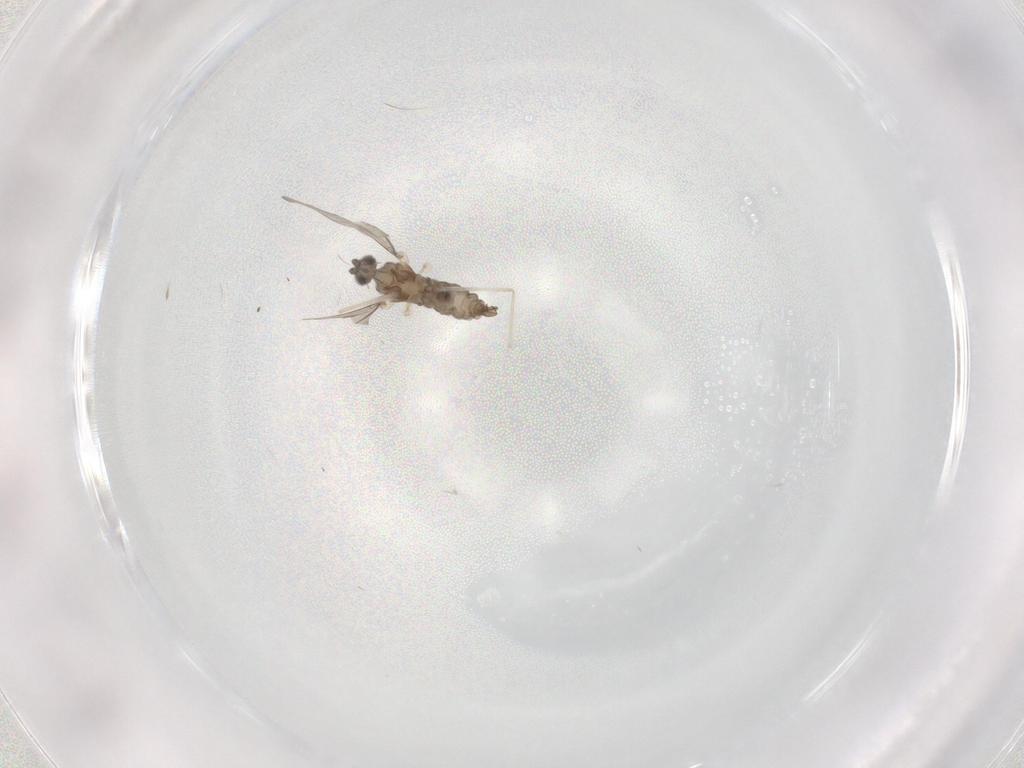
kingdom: Animalia
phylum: Arthropoda
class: Insecta
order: Diptera
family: Cecidomyiidae
